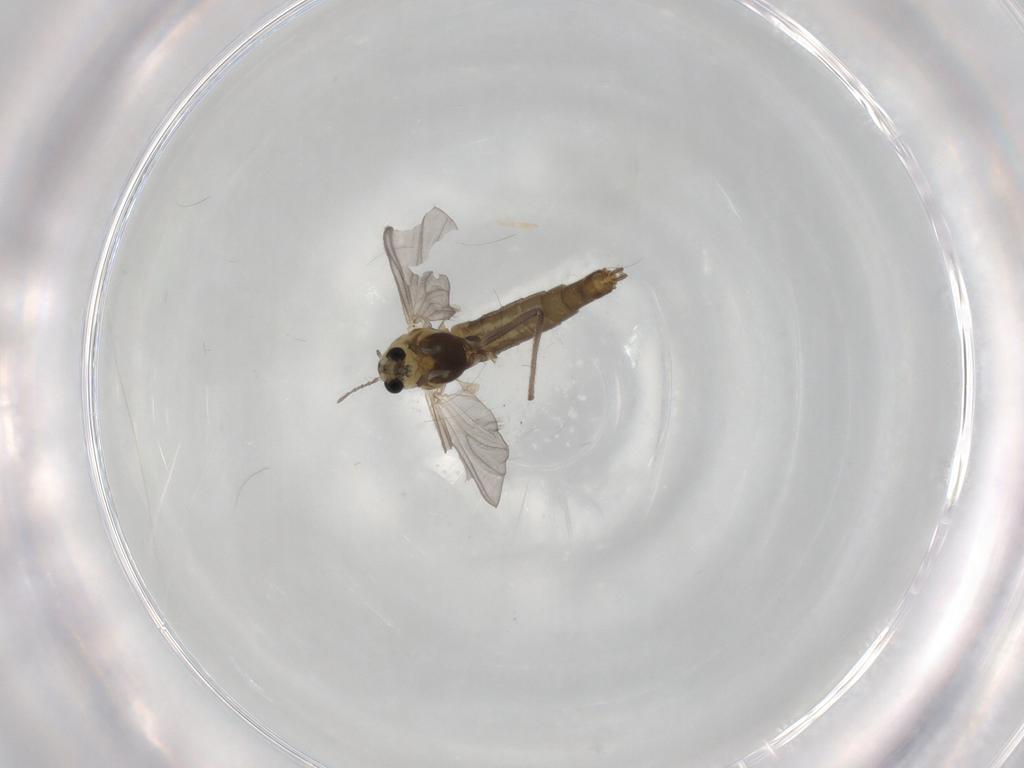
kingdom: Animalia
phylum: Arthropoda
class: Insecta
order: Diptera
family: Chironomidae
